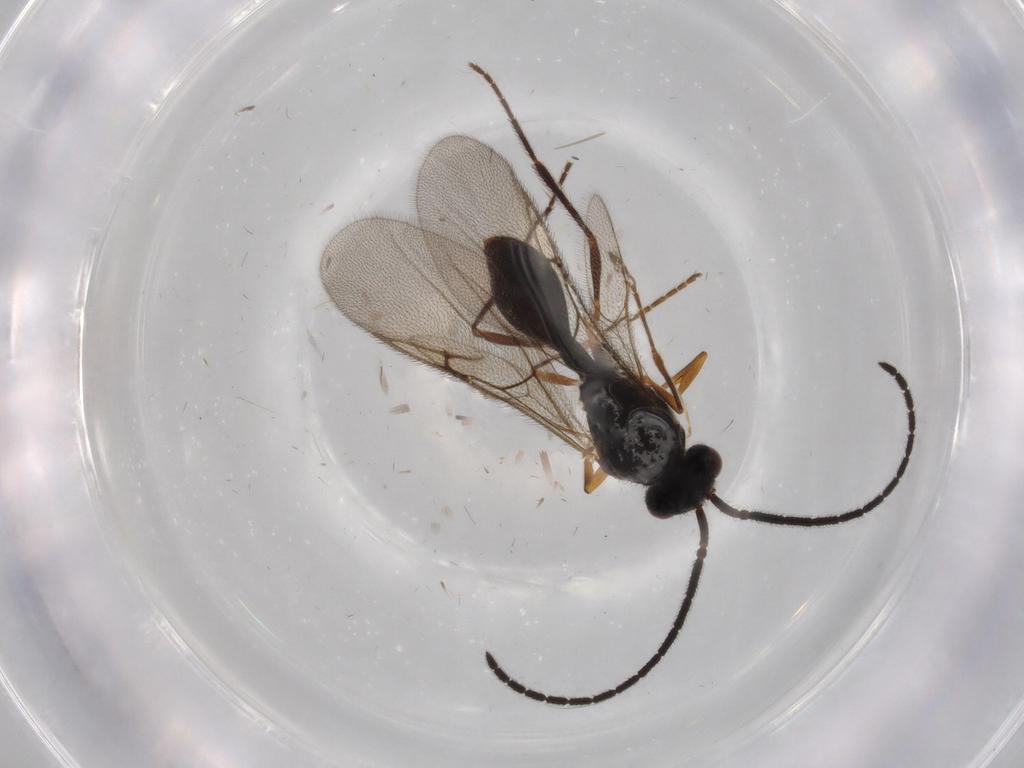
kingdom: Animalia
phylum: Arthropoda
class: Insecta
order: Hymenoptera
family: Diapriidae
